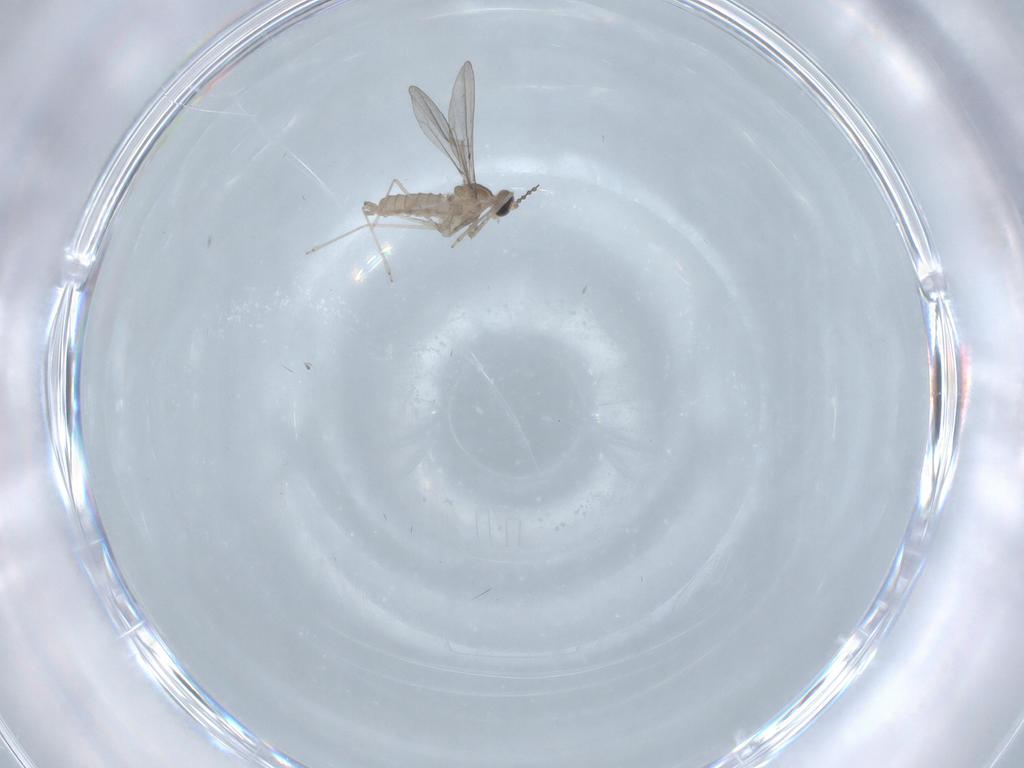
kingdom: Animalia
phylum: Arthropoda
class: Insecta
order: Diptera
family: Cecidomyiidae
